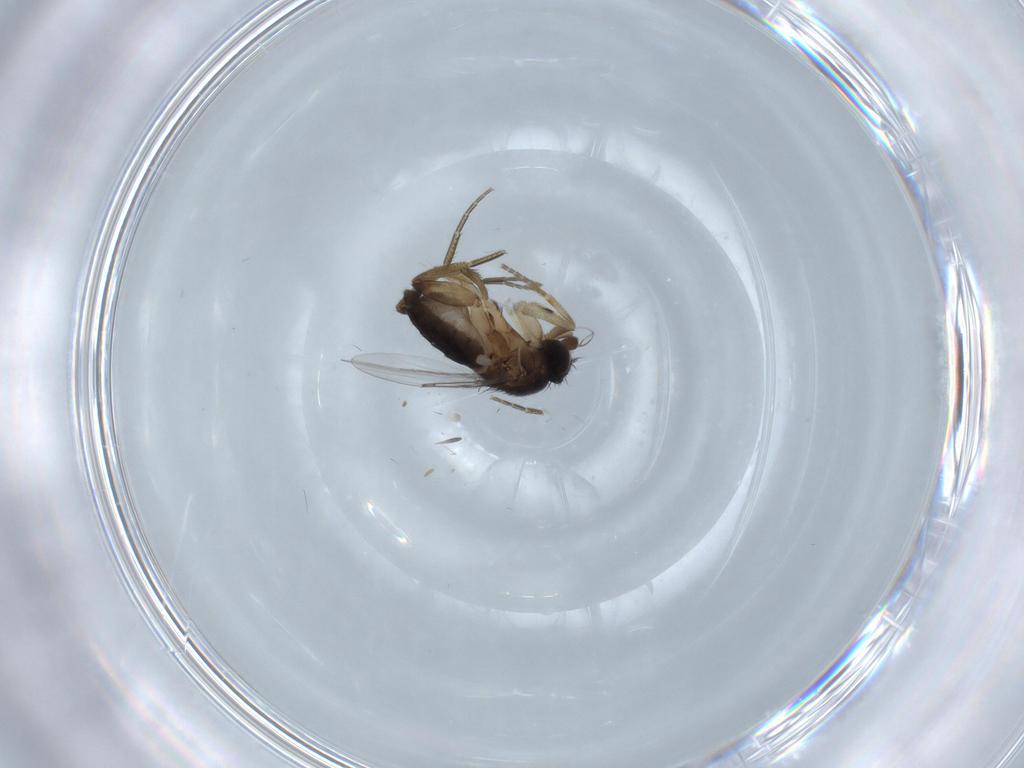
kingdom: Animalia
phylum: Arthropoda
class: Insecta
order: Diptera
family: Phoridae
